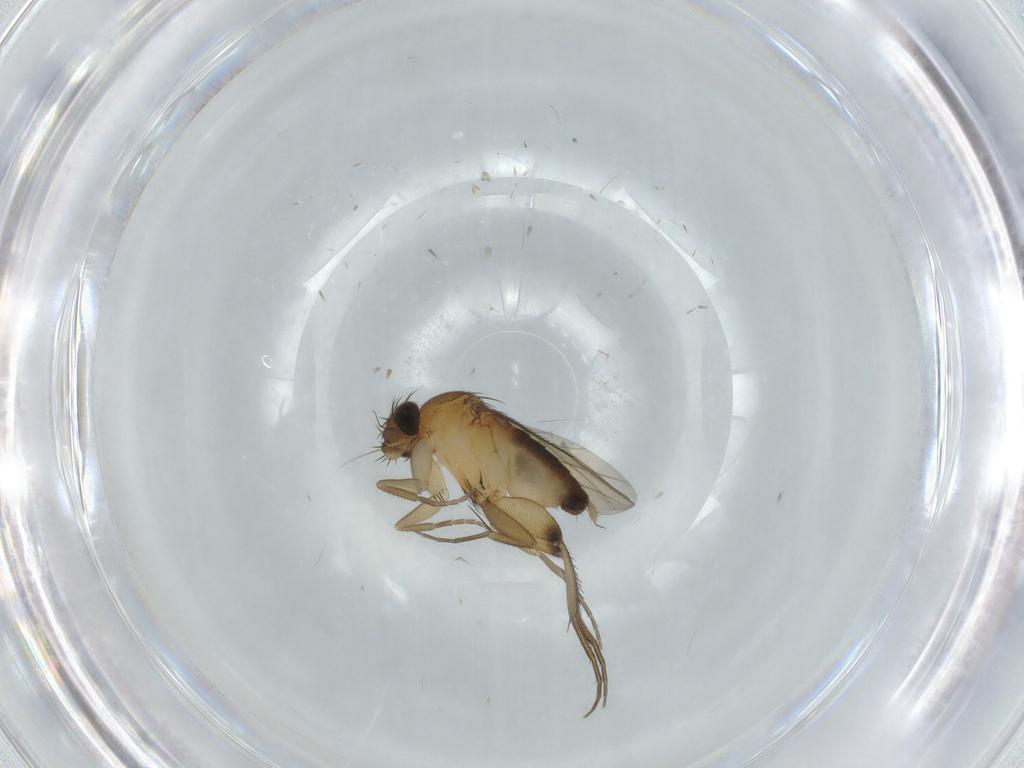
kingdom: Animalia
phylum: Arthropoda
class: Insecta
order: Diptera
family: Phoridae
